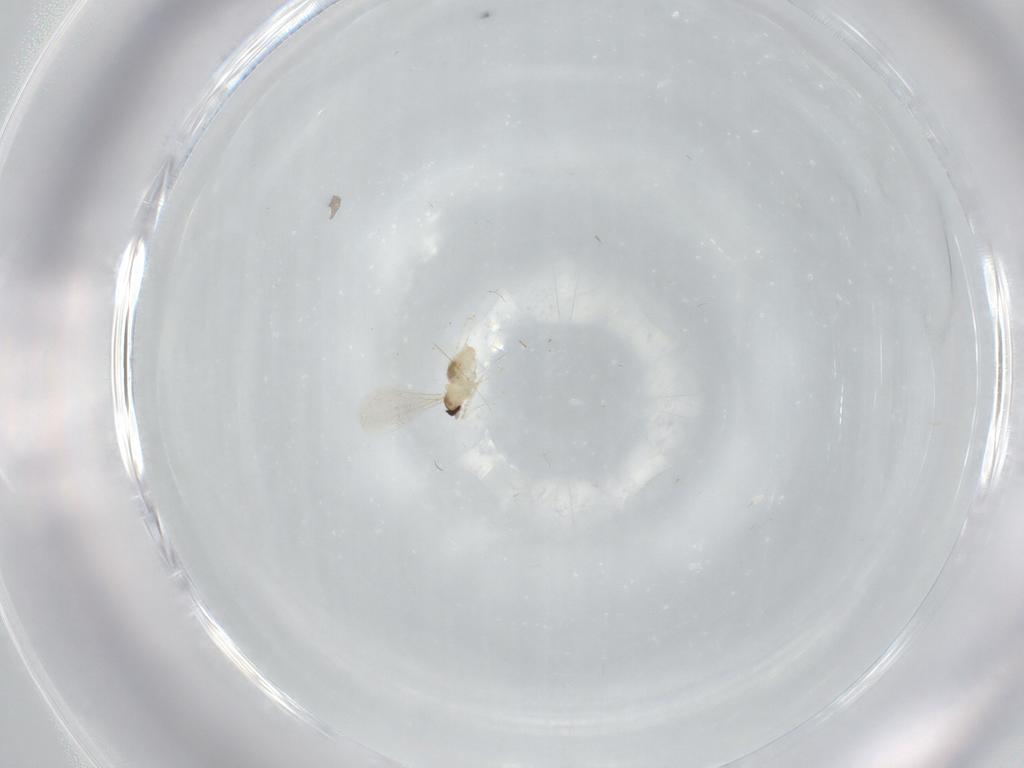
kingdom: Animalia
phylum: Arthropoda
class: Insecta
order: Diptera
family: Cecidomyiidae
